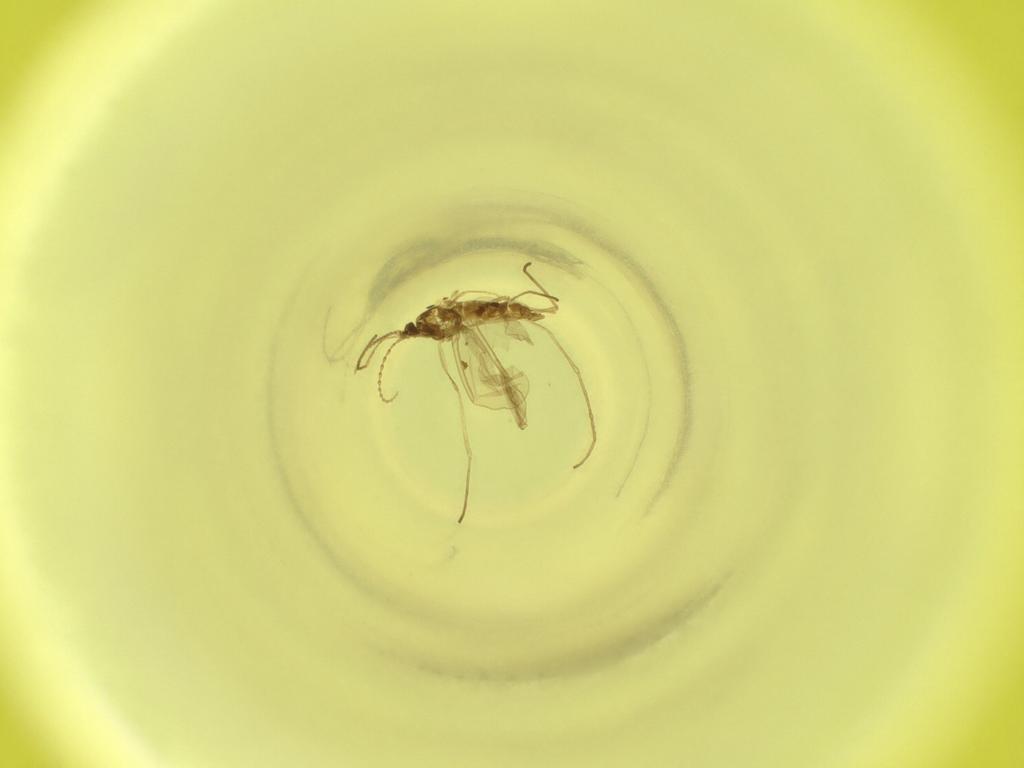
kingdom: Animalia
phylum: Arthropoda
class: Insecta
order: Diptera
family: Cecidomyiidae
